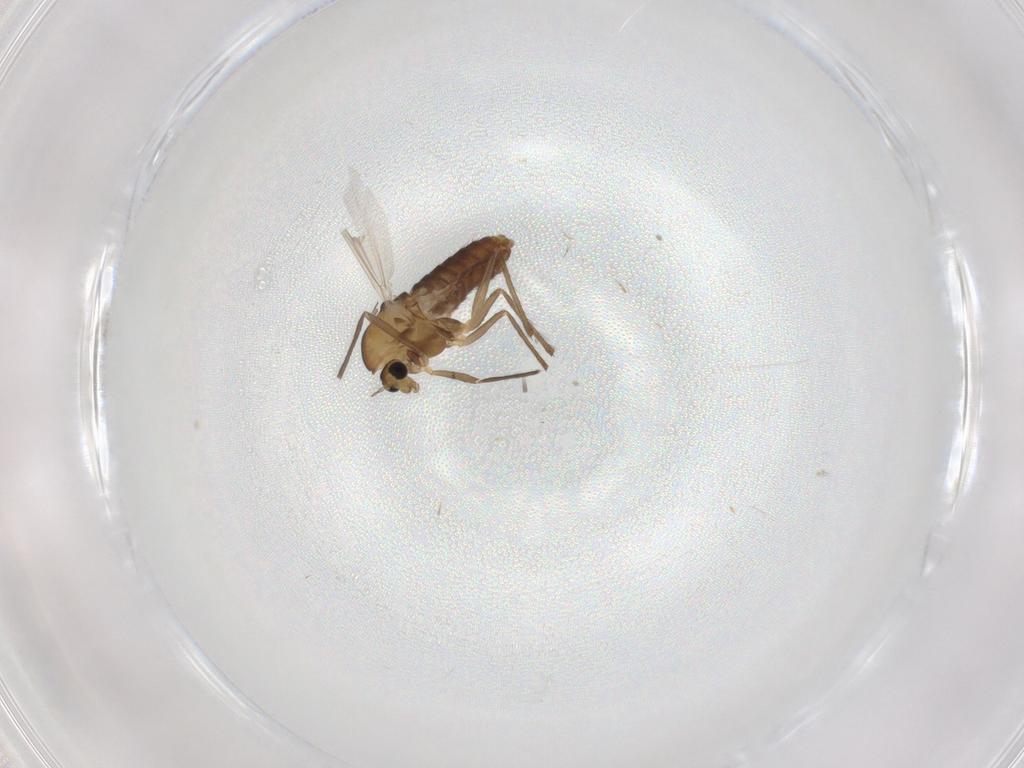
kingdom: Animalia
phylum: Arthropoda
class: Insecta
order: Diptera
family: Chironomidae
